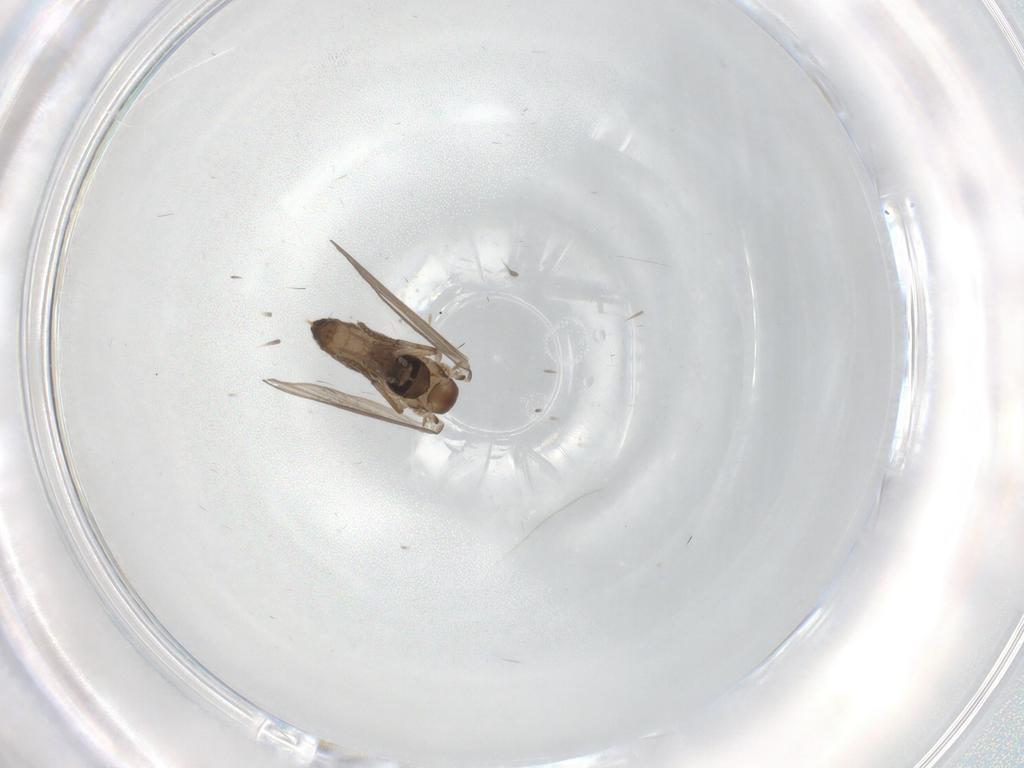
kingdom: Animalia
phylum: Arthropoda
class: Insecta
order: Diptera
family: Psychodidae
